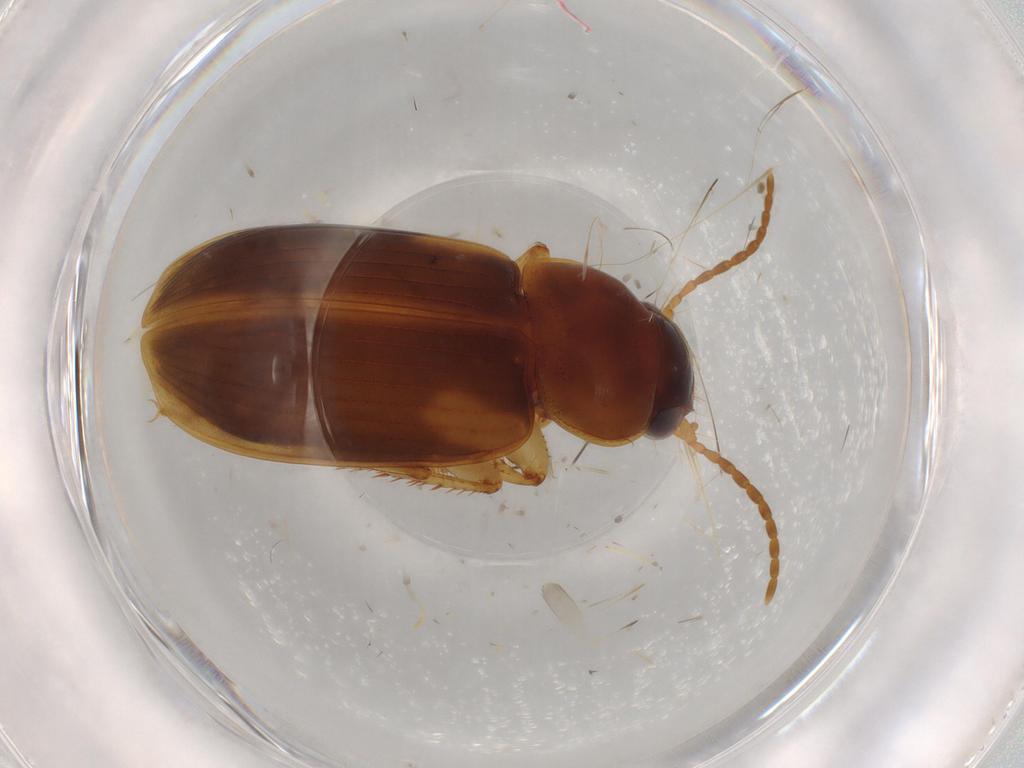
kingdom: Animalia
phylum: Arthropoda
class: Insecta
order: Coleoptera
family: Carabidae
